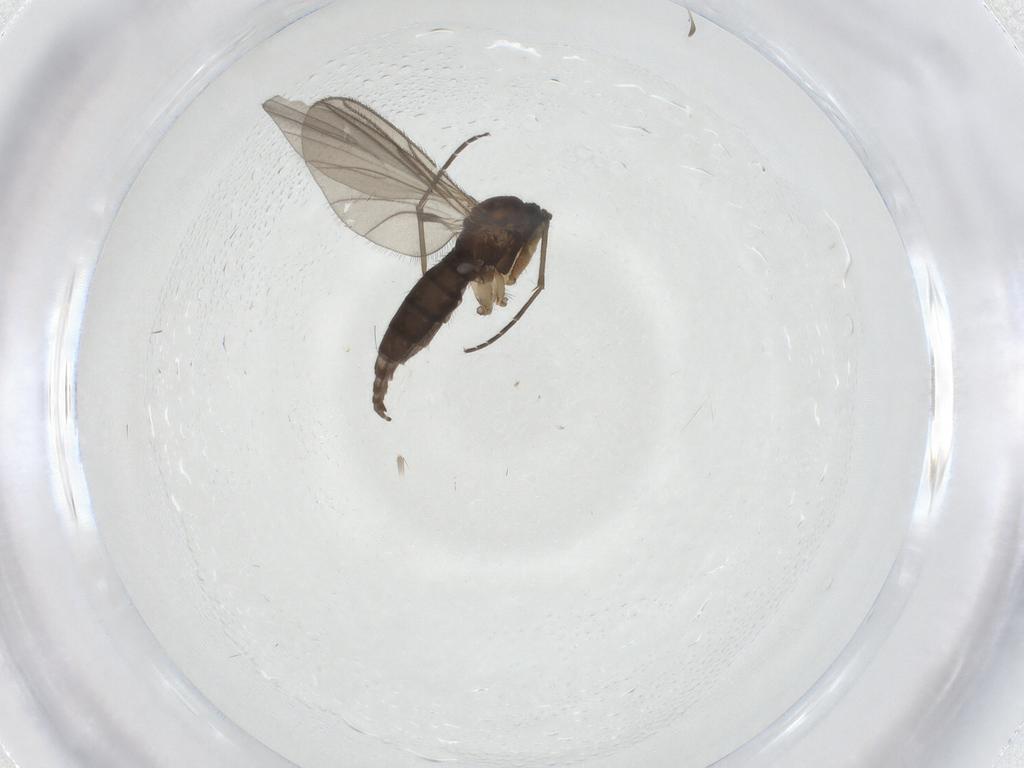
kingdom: Animalia
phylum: Arthropoda
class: Insecta
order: Diptera
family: Sciaridae
